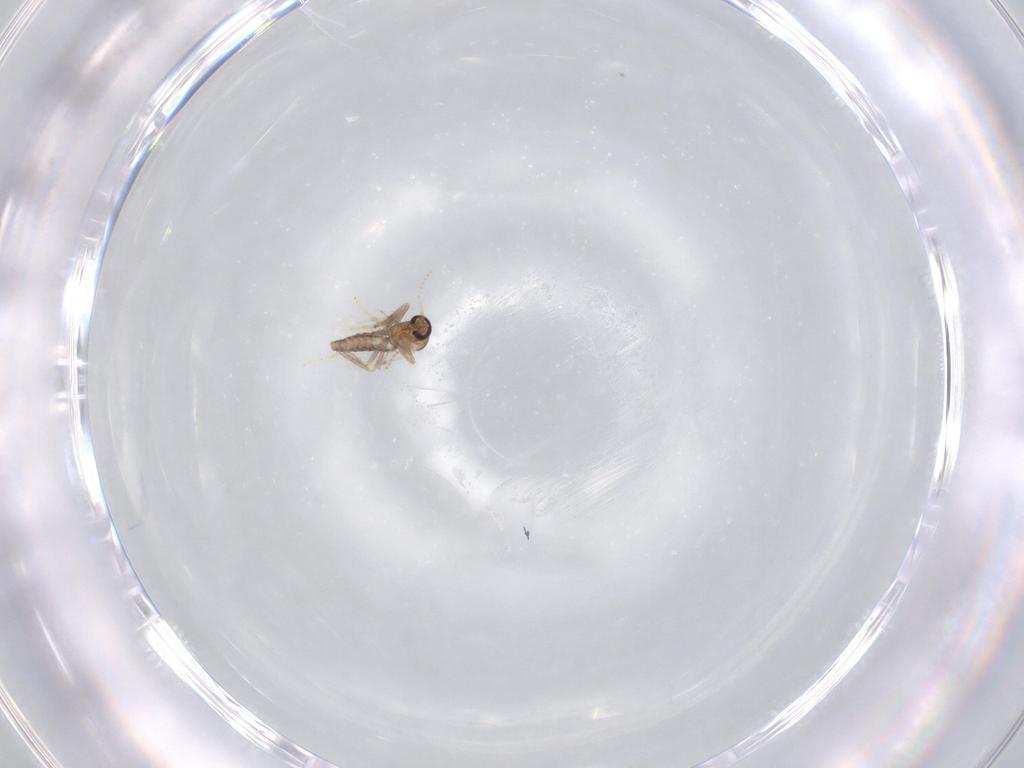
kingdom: Animalia
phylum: Arthropoda
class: Insecta
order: Diptera
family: Ceratopogonidae
